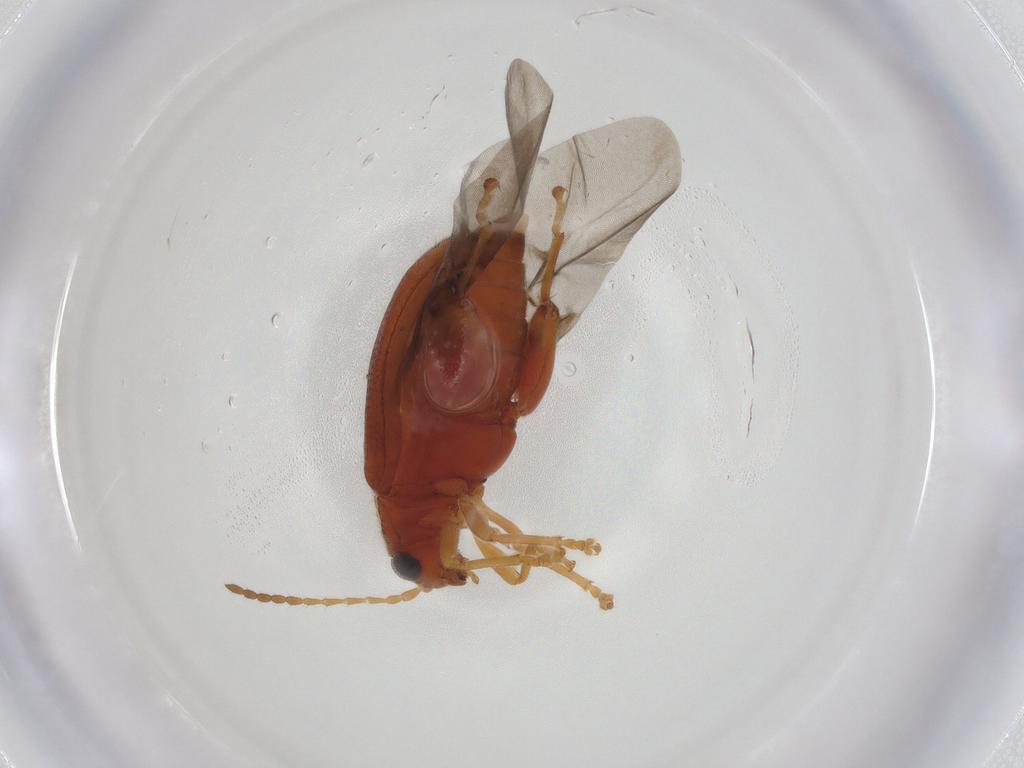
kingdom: Animalia
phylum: Arthropoda
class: Insecta
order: Coleoptera
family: Chrysomelidae
